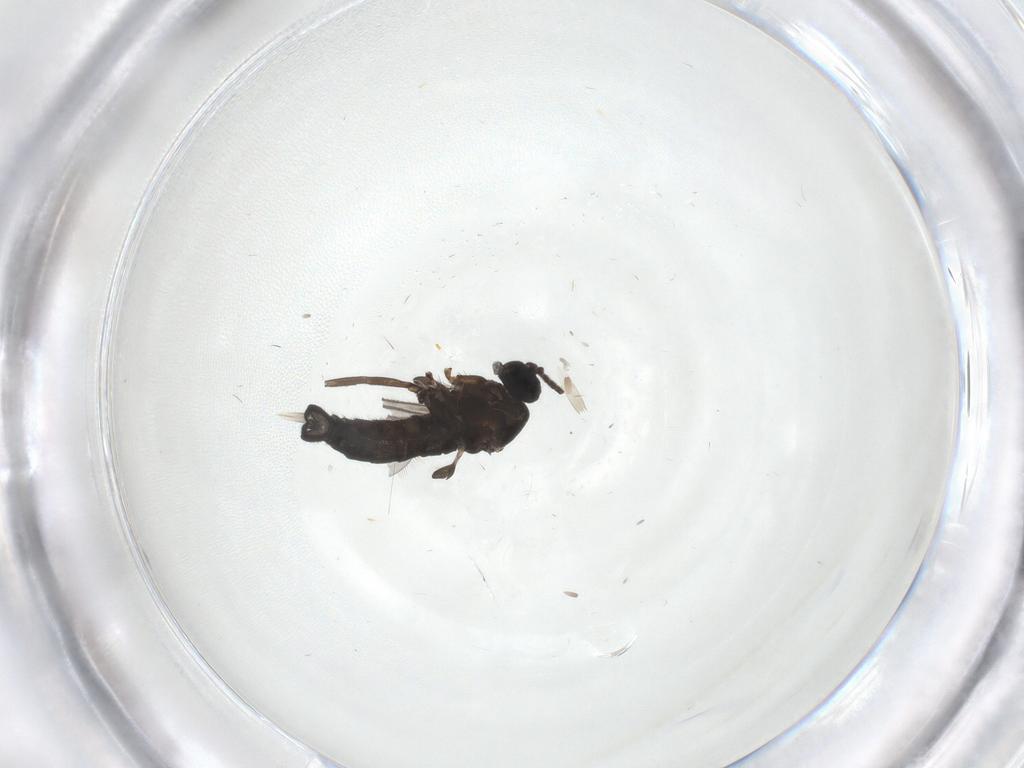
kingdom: Animalia
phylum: Arthropoda
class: Insecta
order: Diptera
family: Sciaridae
